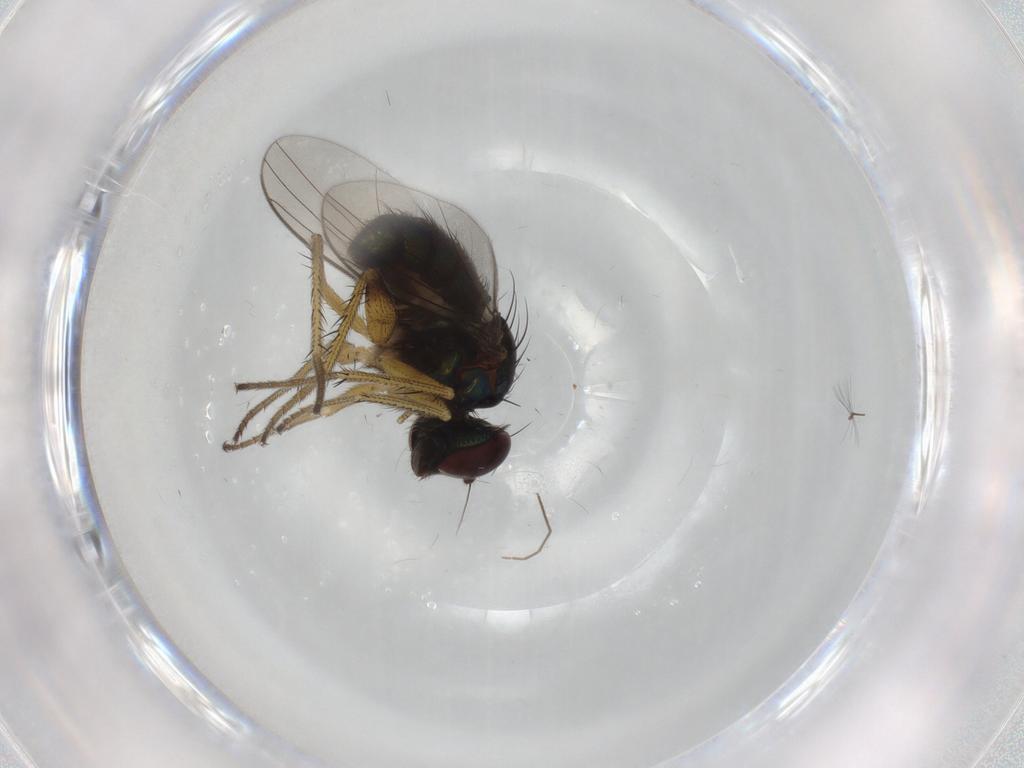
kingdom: Animalia
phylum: Arthropoda
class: Insecta
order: Diptera
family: Dolichopodidae
